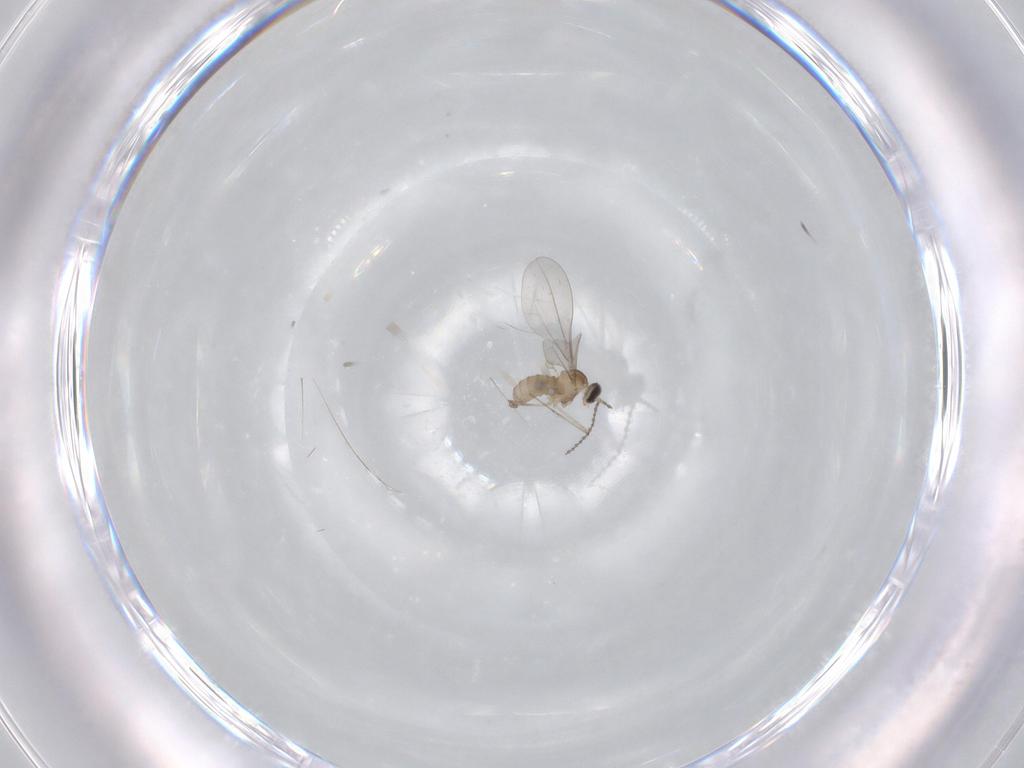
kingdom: Animalia
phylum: Arthropoda
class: Insecta
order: Diptera
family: Cecidomyiidae
